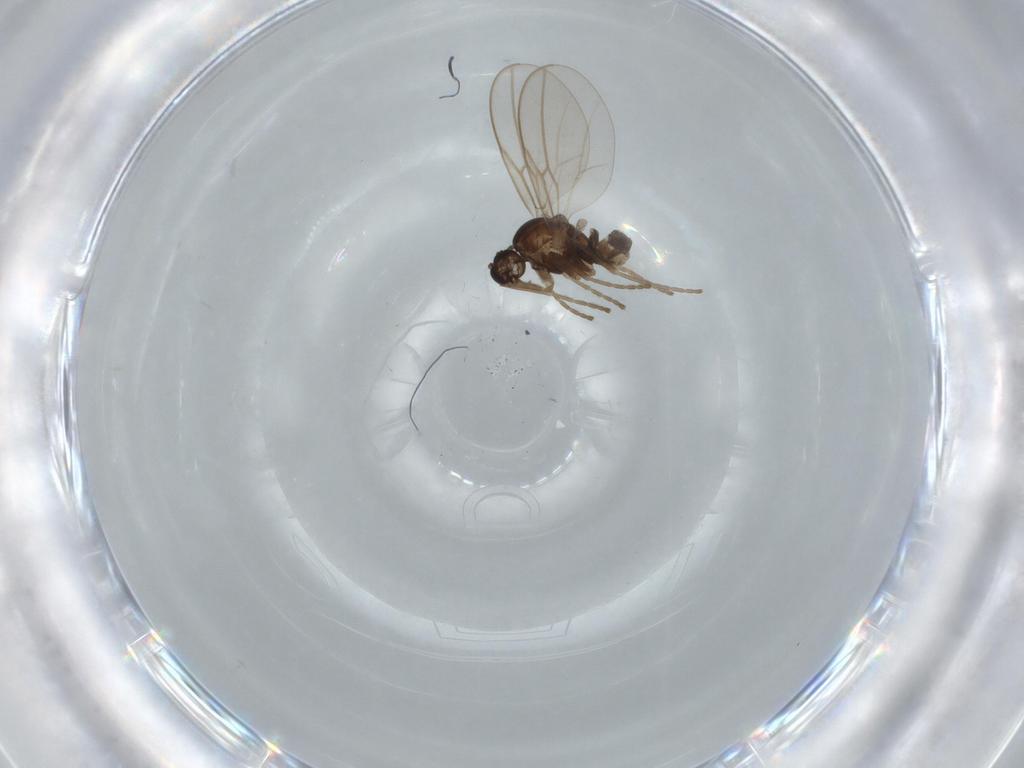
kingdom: Animalia
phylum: Arthropoda
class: Insecta
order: Diptera
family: Cecidomyiidae
